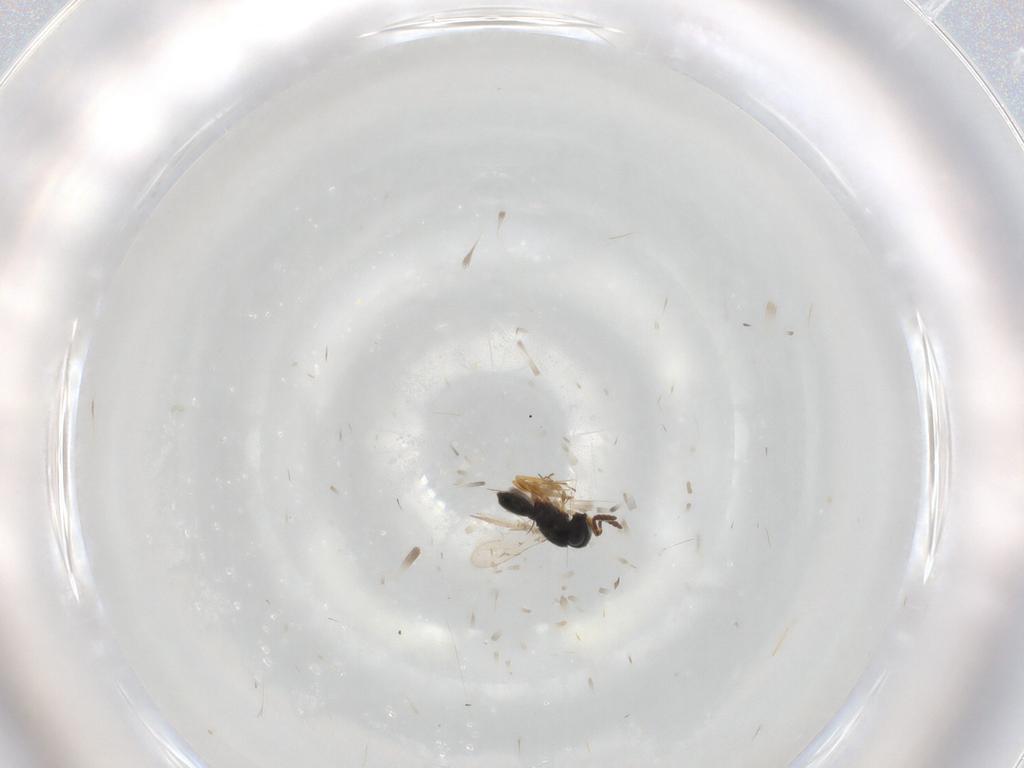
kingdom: Animalia
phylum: Arthropoda
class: Insecta
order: Hymenoptera
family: Scelionidae
